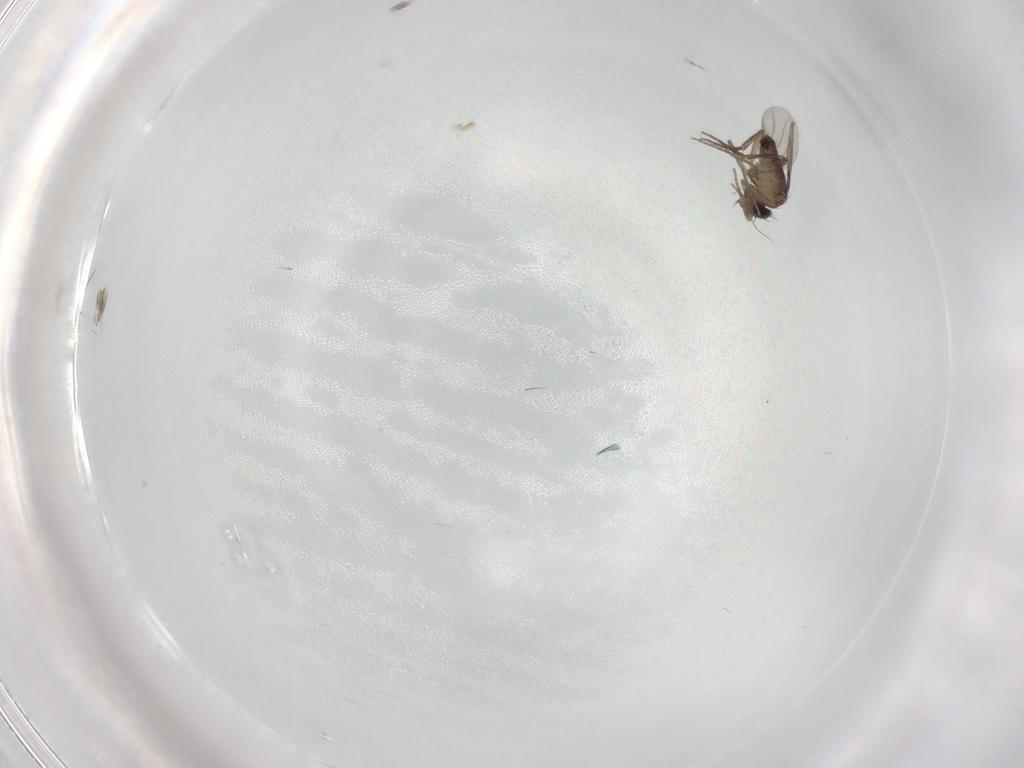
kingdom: Animalia
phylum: Arthropoda
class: Insecta
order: Diptera
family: Phoridae
